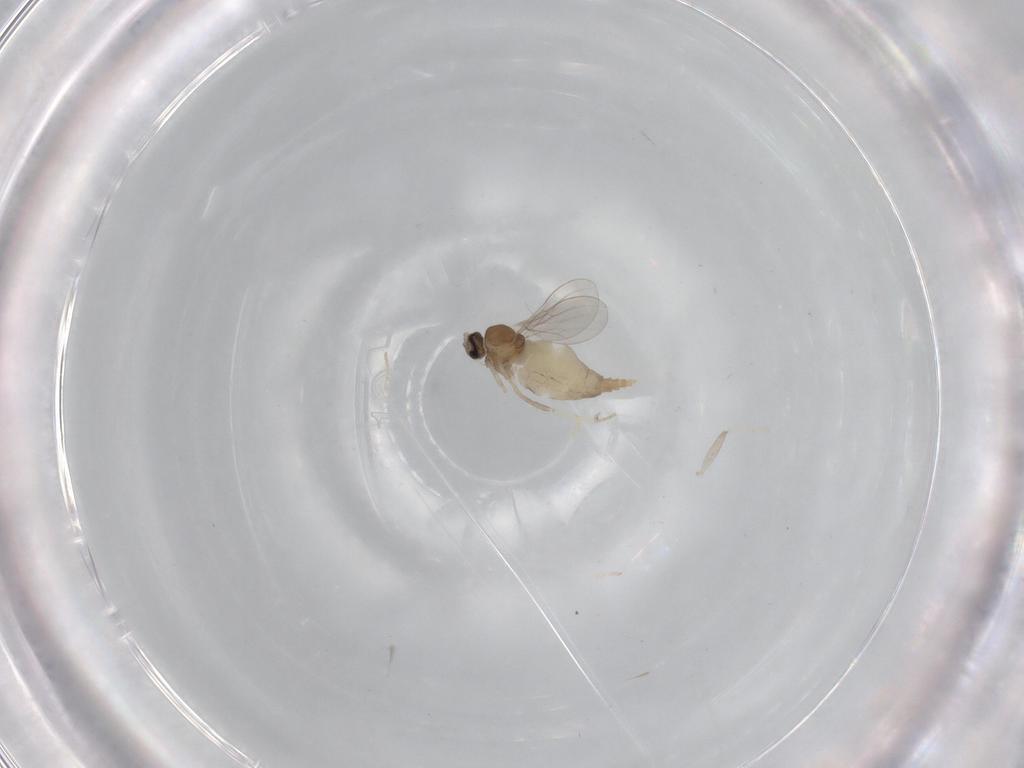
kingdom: Animalia
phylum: Arthropoda
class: Insecta
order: Diptera
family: Cecidomyiidae
